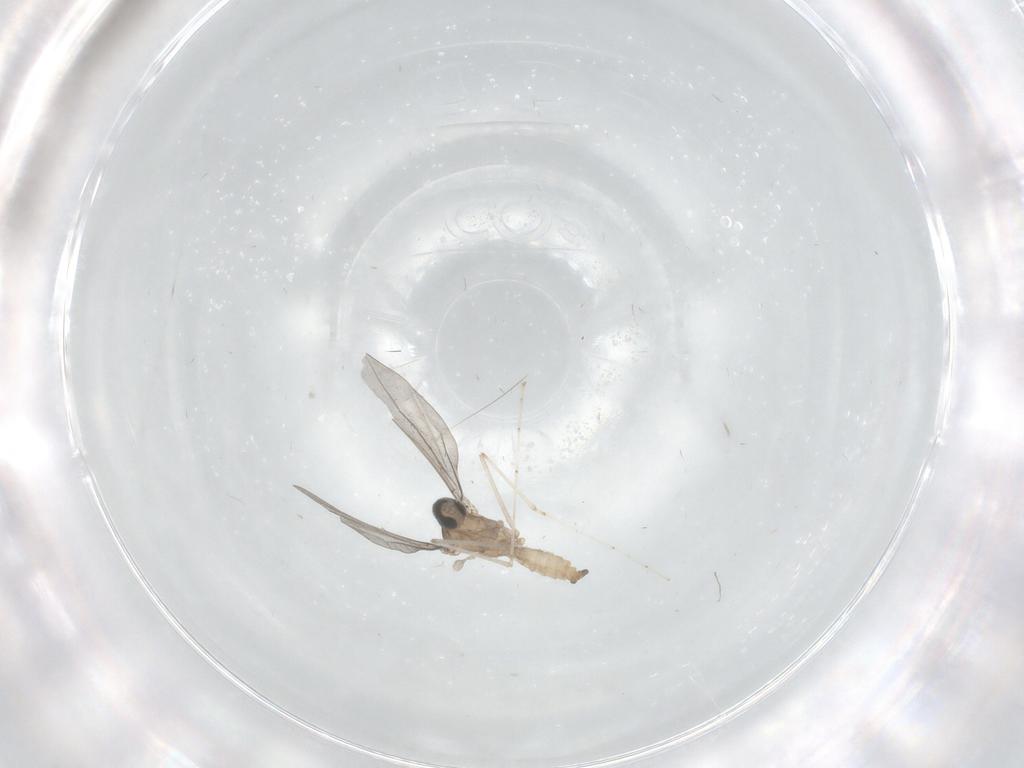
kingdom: Animalia
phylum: Arthropoda
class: Insecta
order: Diptera
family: Cecidomyiidae
